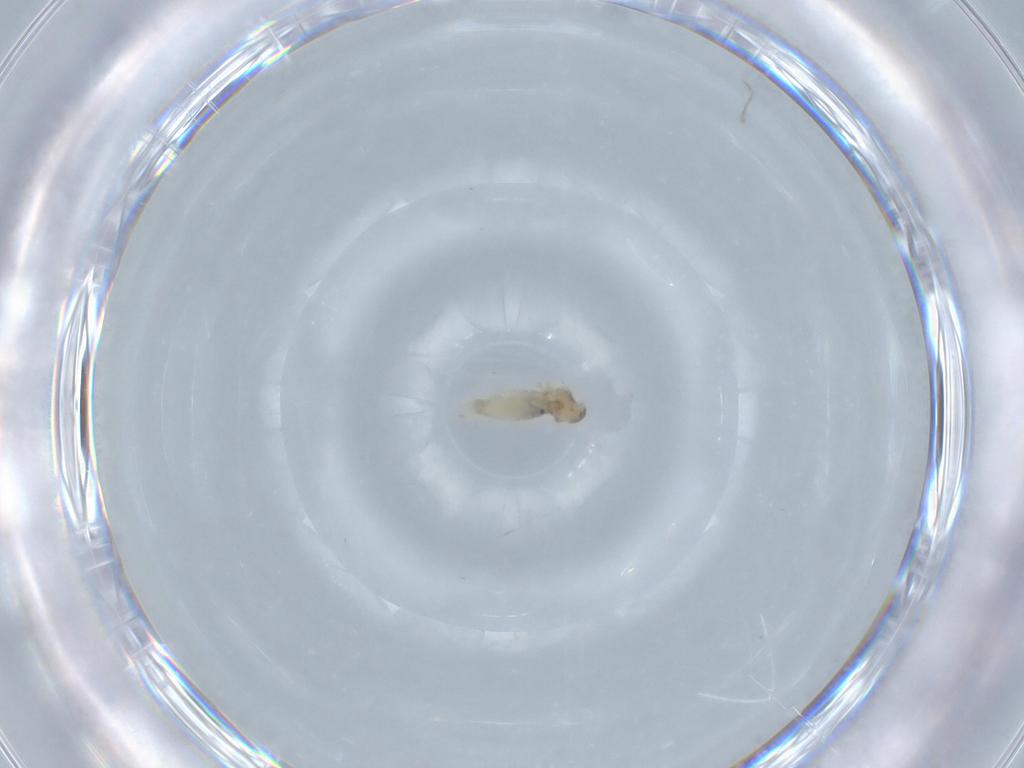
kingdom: Animalia
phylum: Arthropoda
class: Insecta
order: Diptera
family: Cecidomyiidae
